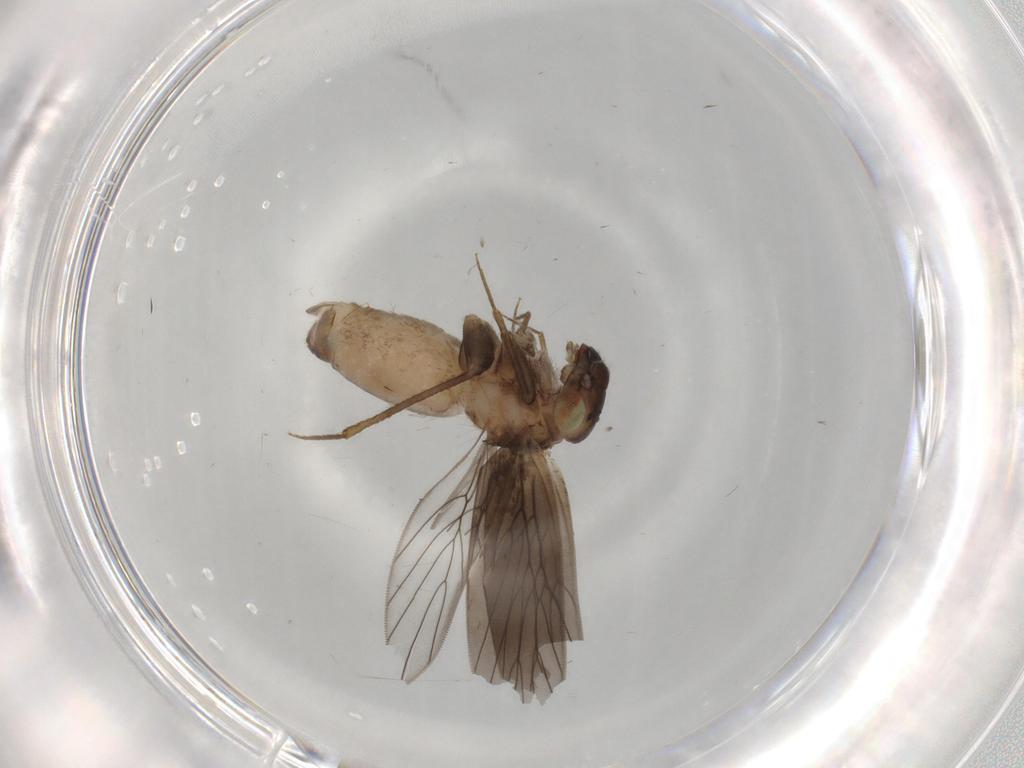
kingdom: Animalia
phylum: Arthropoda
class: Insecta
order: Psocodea
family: Lepidopsocidae
